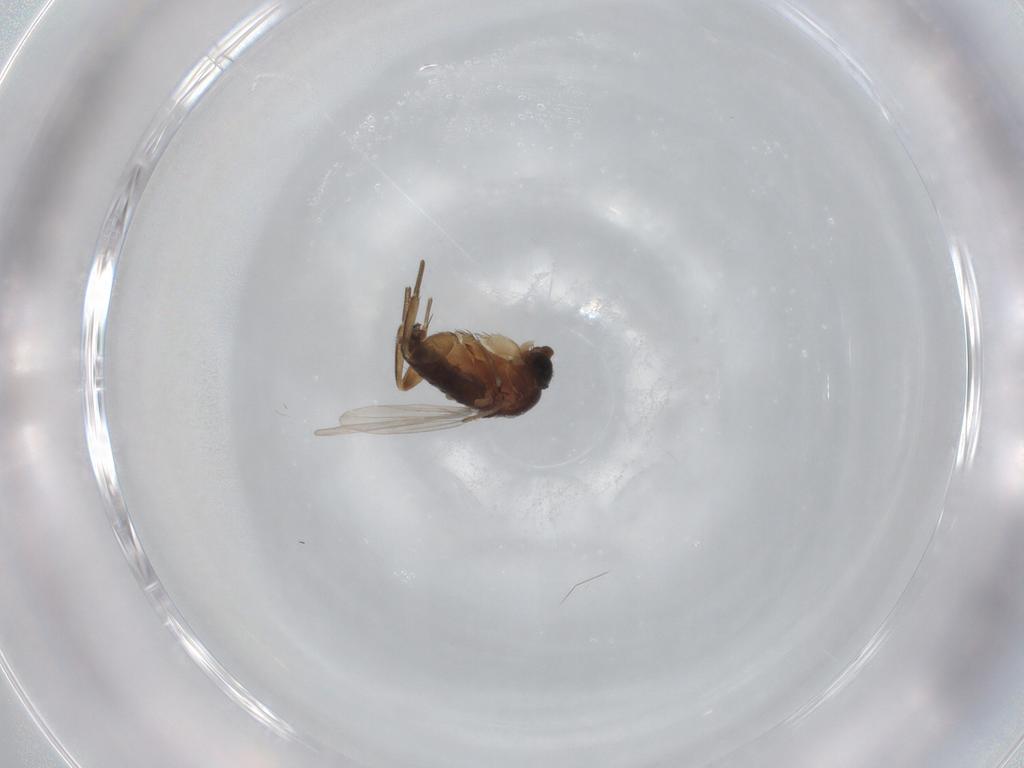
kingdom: Animalia
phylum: Arthropoda
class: Insecta
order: Diptera
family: Phoridae
